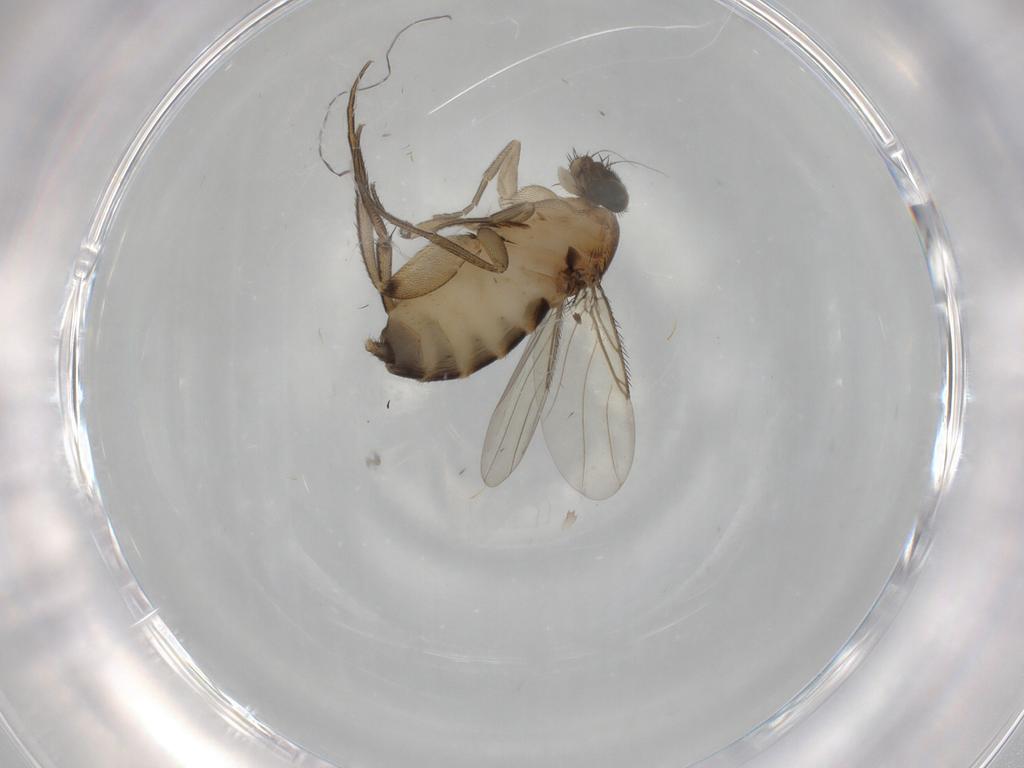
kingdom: Animalia
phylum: Arthropoda
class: Insecta
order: Diptera
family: Phoridae
